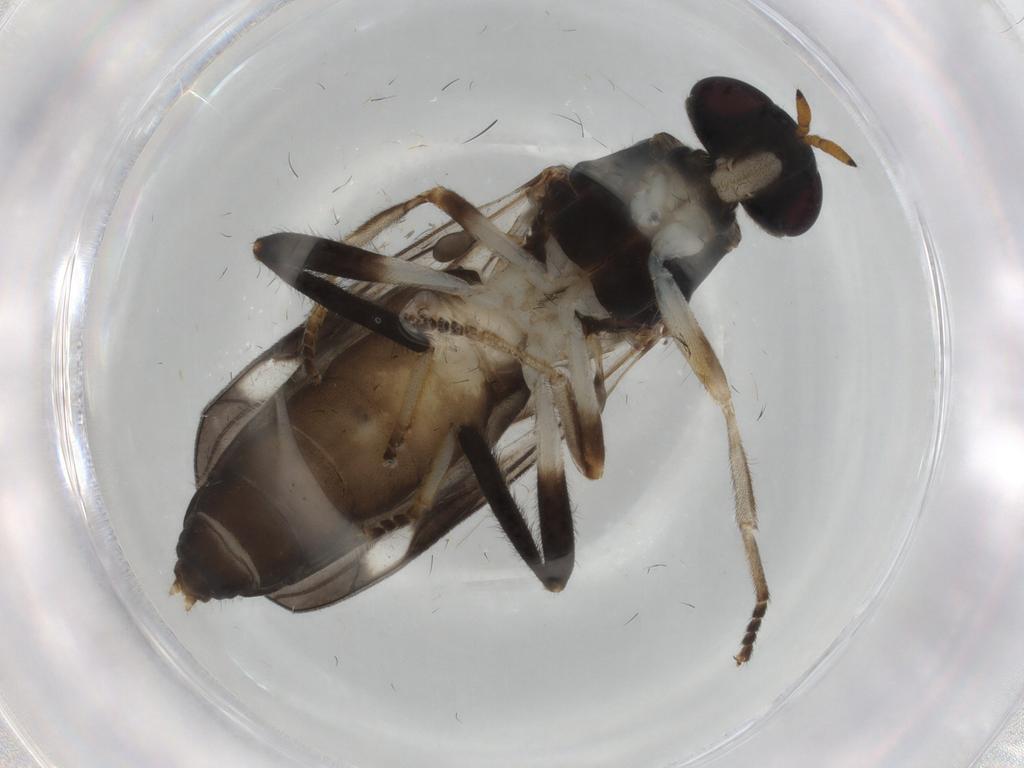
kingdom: Animalia
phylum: Arthropoda
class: Insecta
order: Diptera
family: Stratiomyidae
